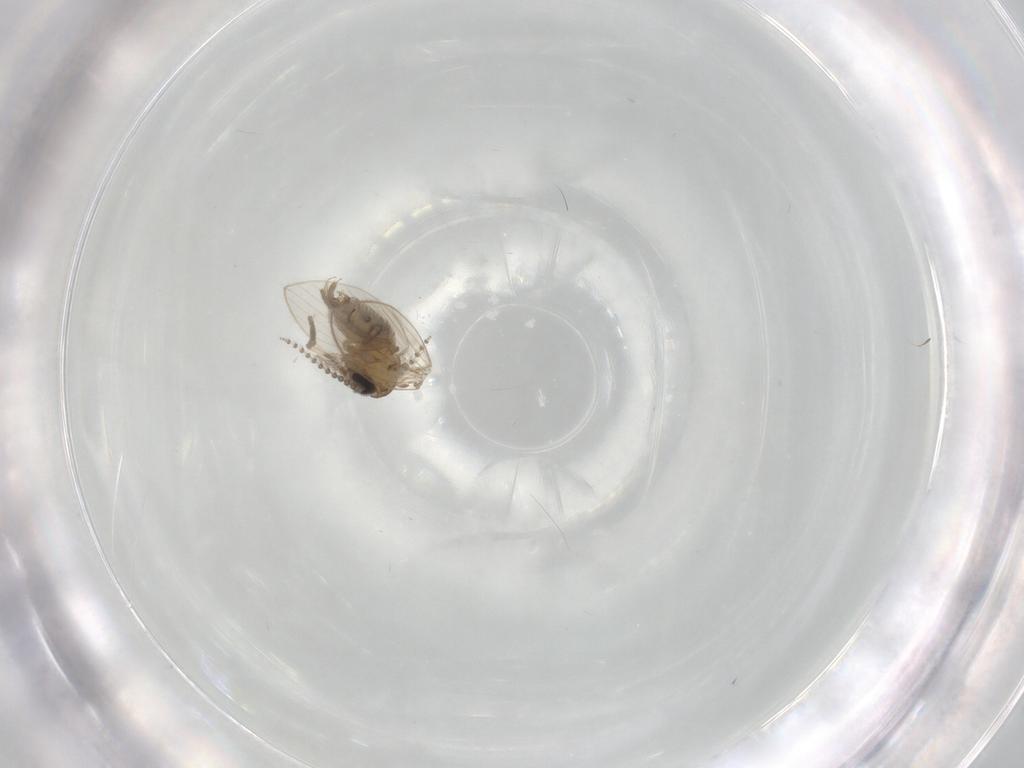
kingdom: Animalia
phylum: Arthropoda
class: Insecta
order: Diptera
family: Psychodidae
